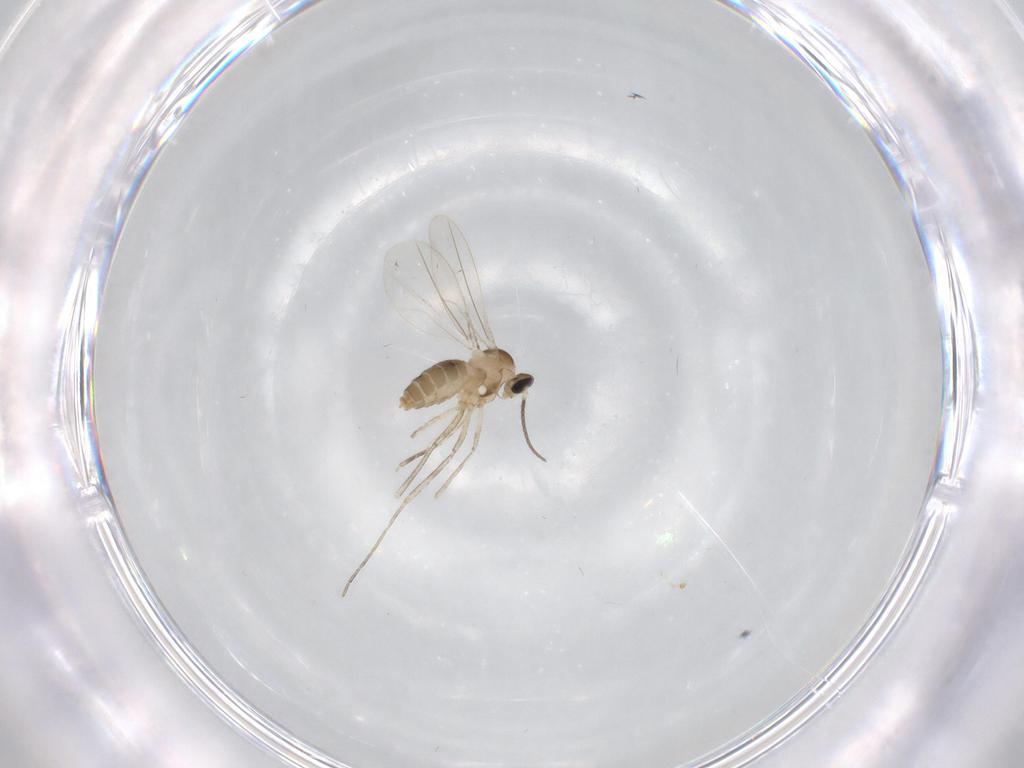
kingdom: Animalia
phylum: Arthropoda
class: Insecta
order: Diptera
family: Cecidomyiidae
